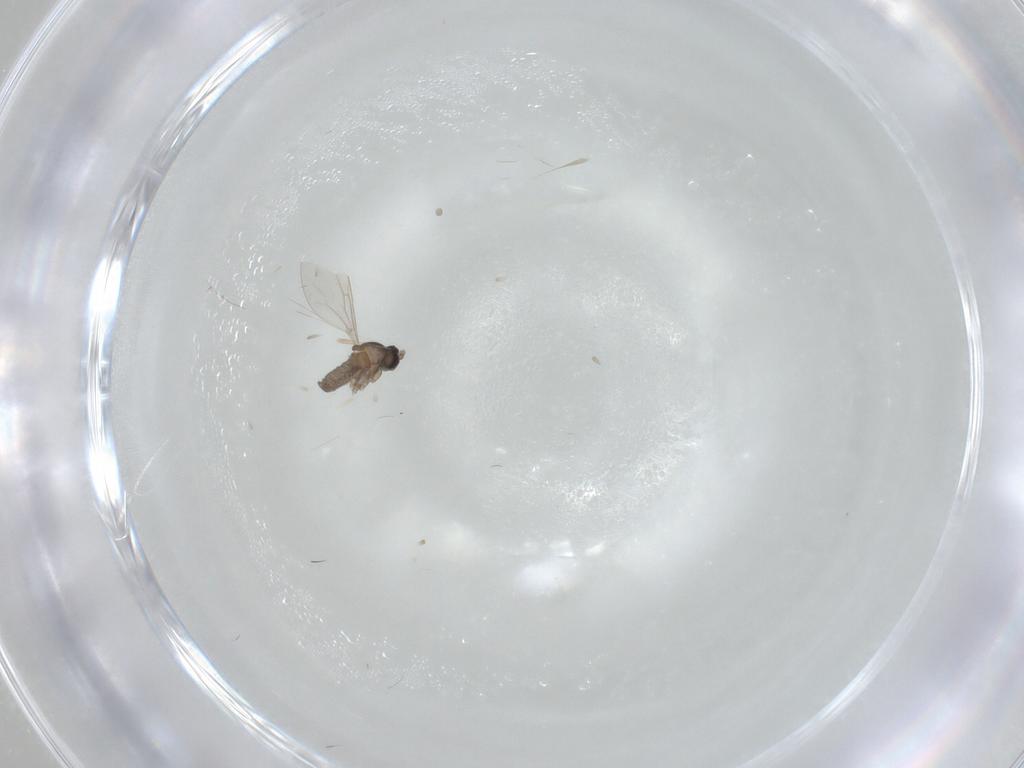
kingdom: Animalia
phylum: Arthropoda
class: Insecta
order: Diptera
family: Cecidomyiidae
